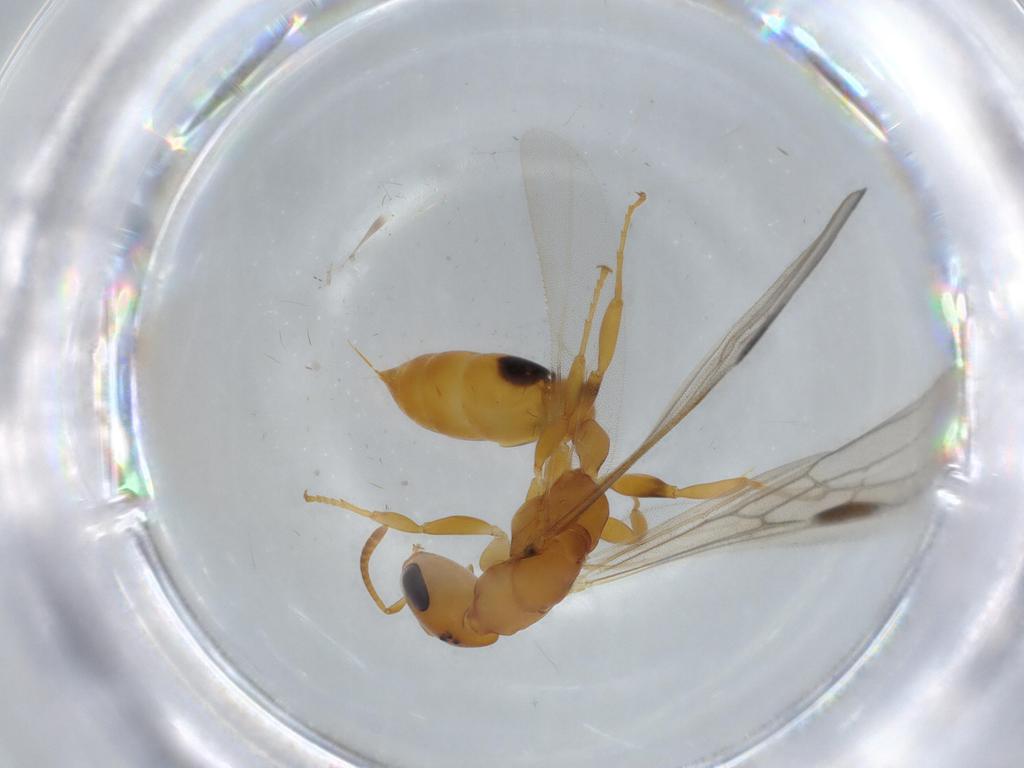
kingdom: Animalia
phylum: Arthropoda
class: Insecta
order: Hymenoptera
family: Formicidae
